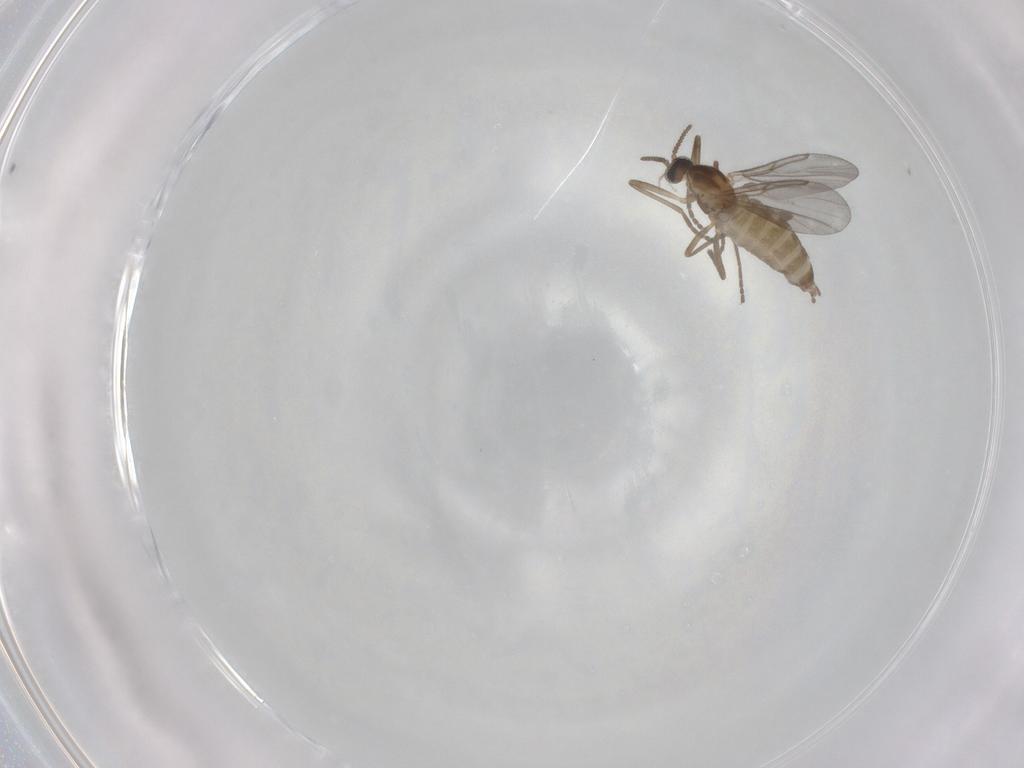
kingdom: Animalia
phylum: Arthropoda
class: Insecta
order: Diptera
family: Cecidomyiidae
